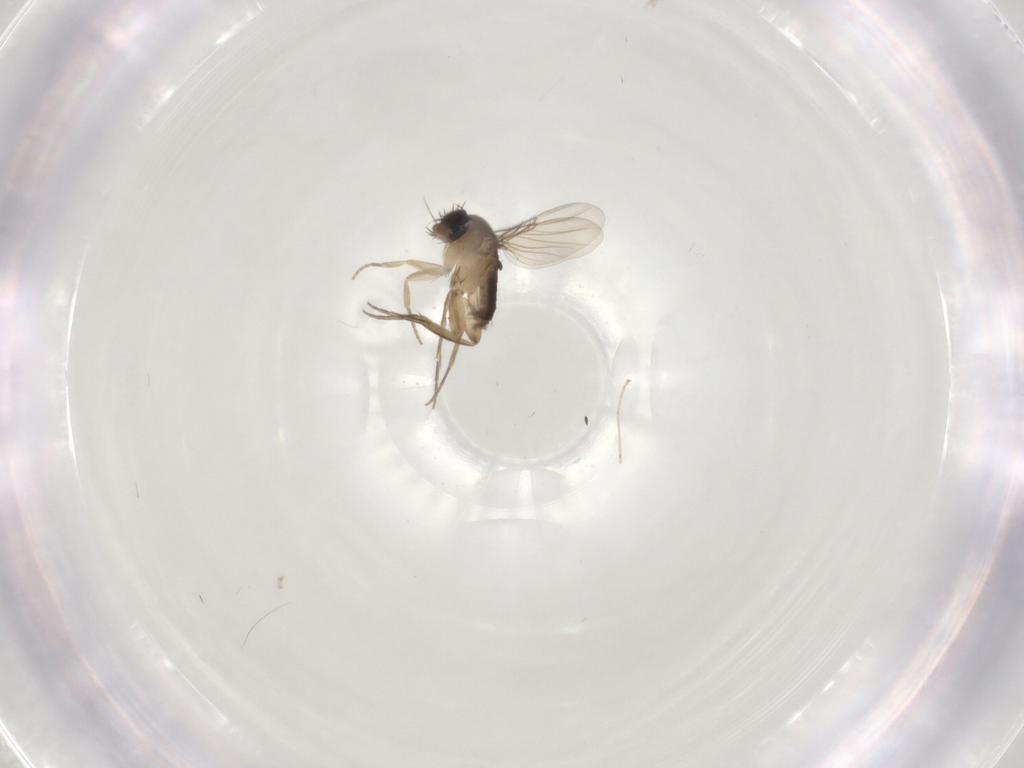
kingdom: Animalia
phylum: Arthropoda
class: Insecta
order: Diptera
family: Phoridae
